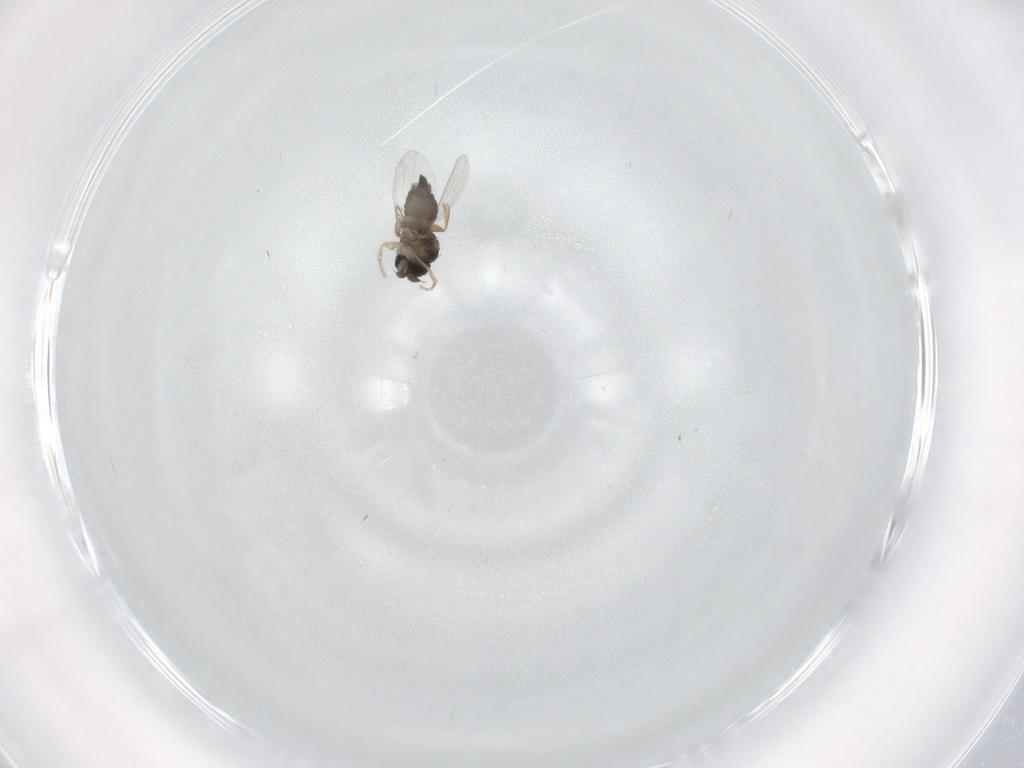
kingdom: Animalia
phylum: Arthropoda
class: Insecta
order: Diptera
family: Phoridae
